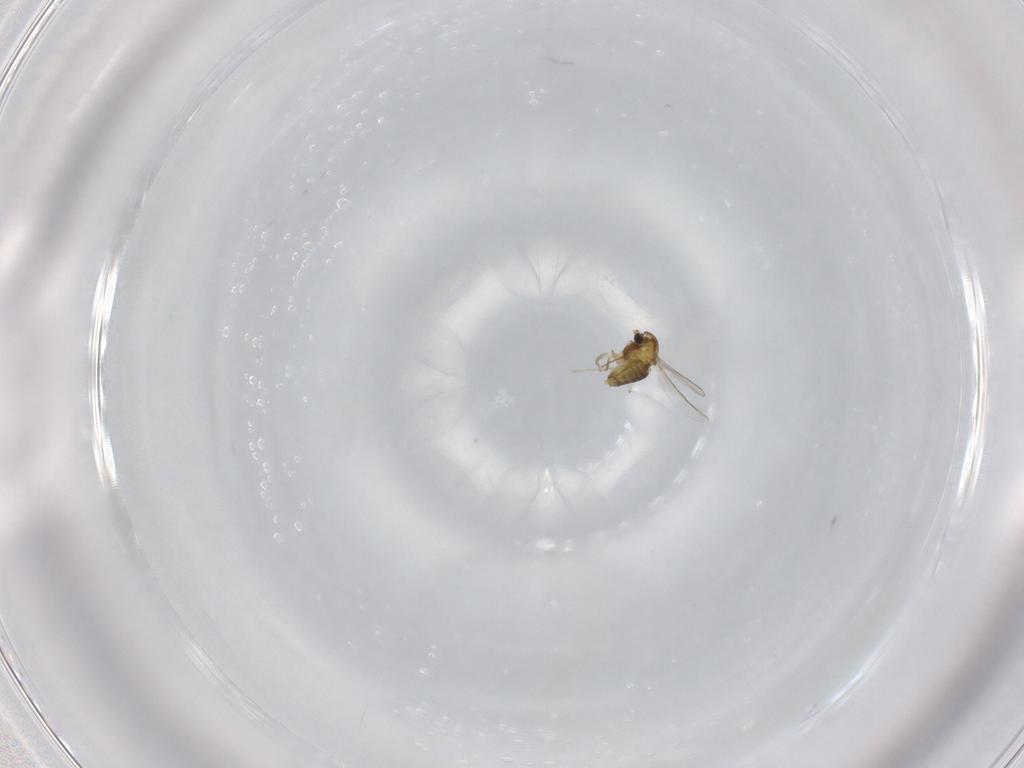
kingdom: Animalia
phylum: Arthropoda
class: Insecta
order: Diptera
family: Chironomidae
